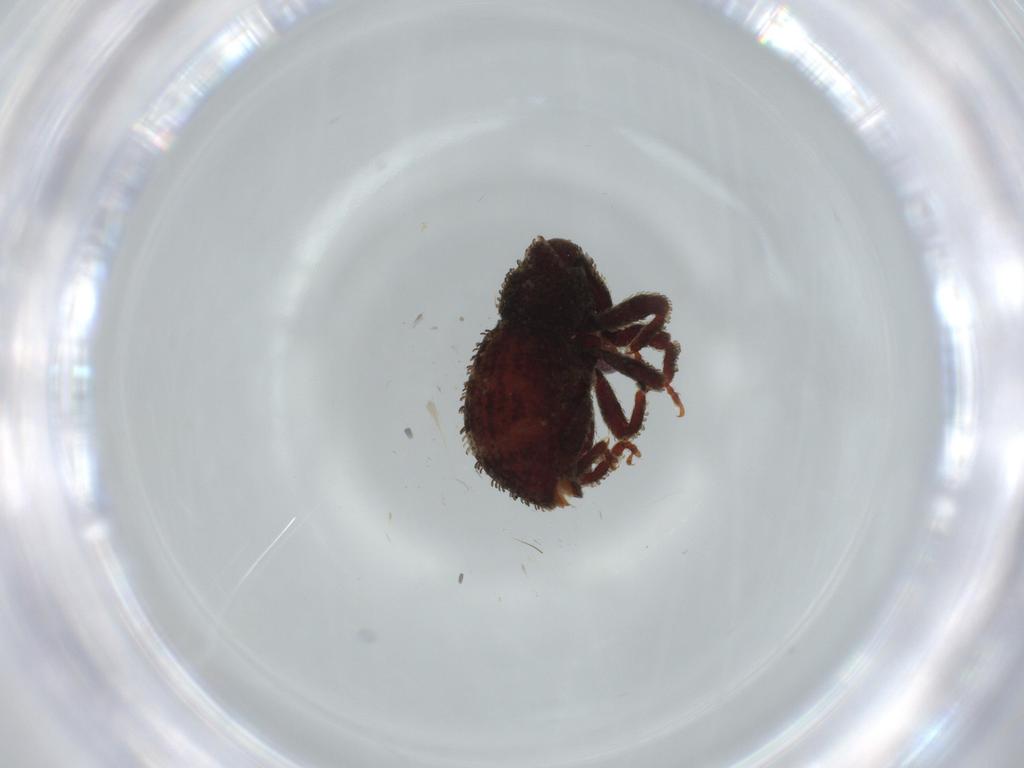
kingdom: Animalia
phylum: Arthropoda
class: Insecta
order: Coleoptera
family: Curculionidae
